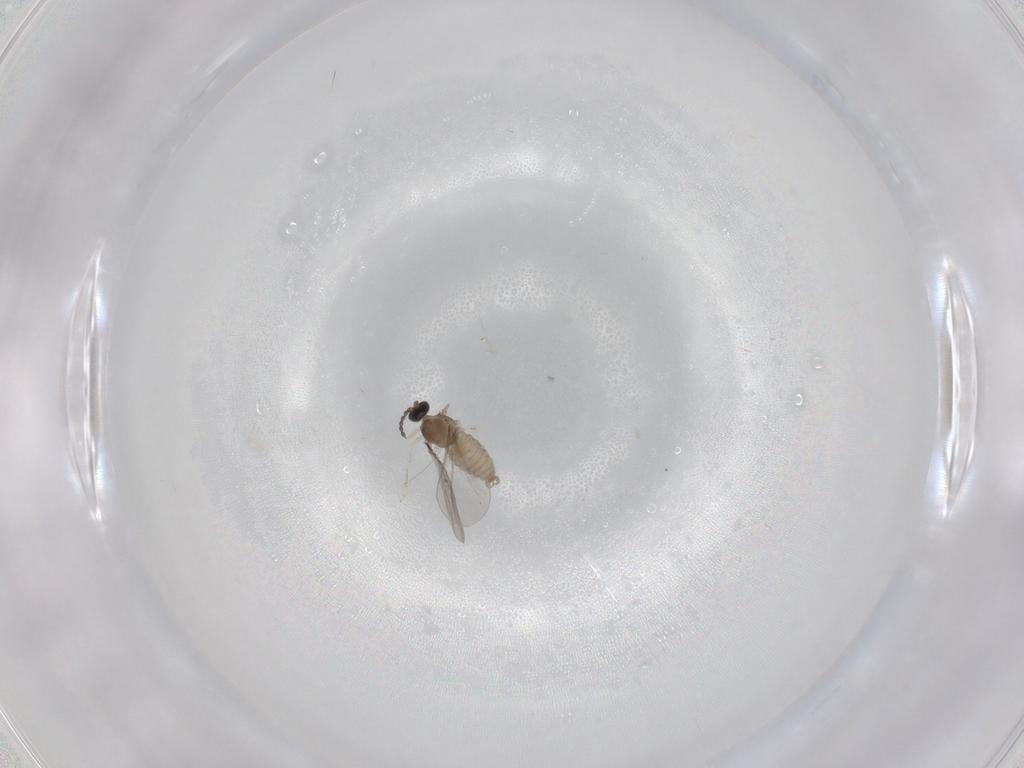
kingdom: Animalia
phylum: Arthropoda
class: Insecta
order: Diptera
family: Cecidomyiidae
